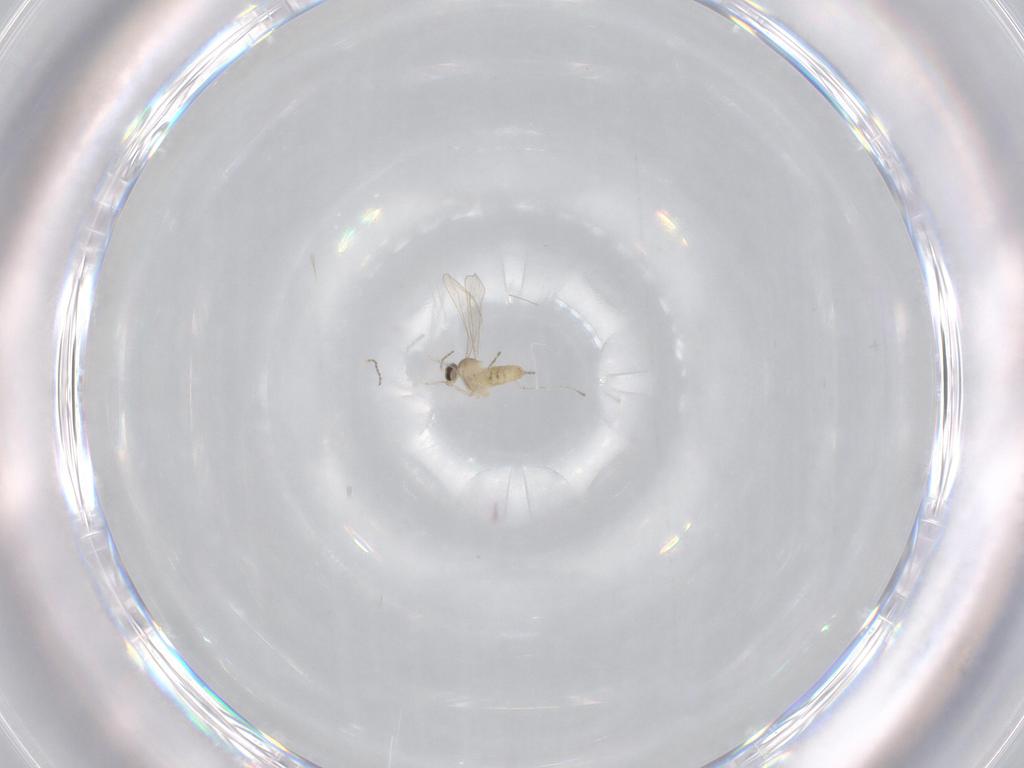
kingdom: Animalia
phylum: Arthropoda
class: Insecta
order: Diptera
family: Cecidomyiidae
